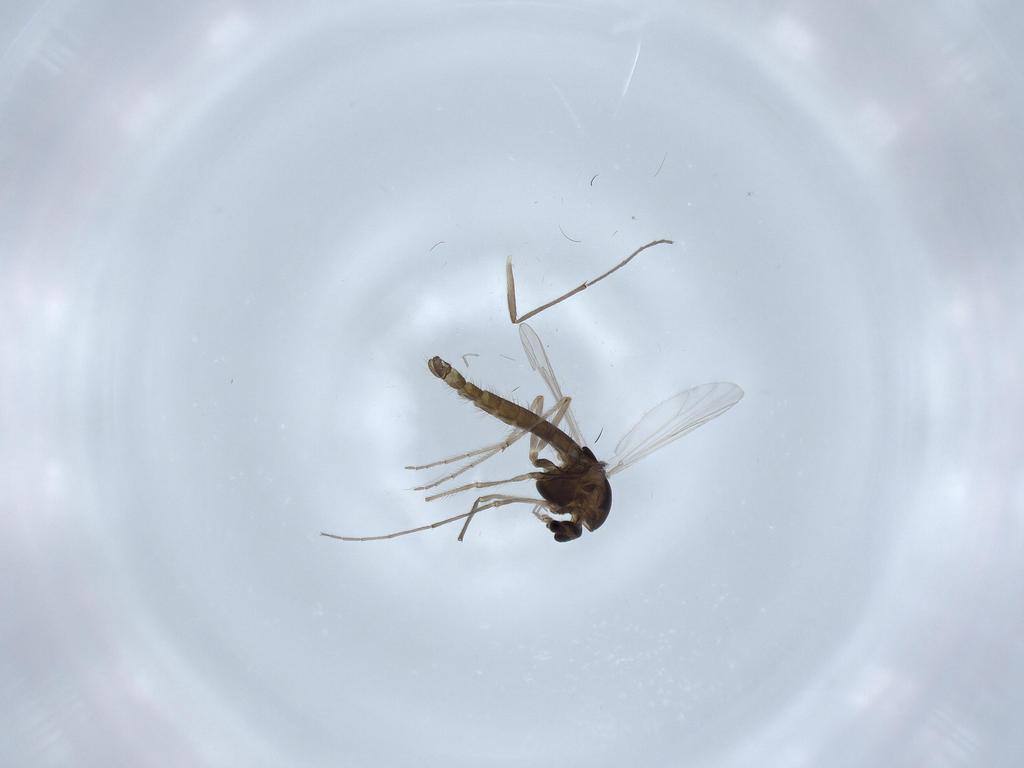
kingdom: Animalia
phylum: Arthropoda
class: Insecta
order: Diptera
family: Chironomidae
